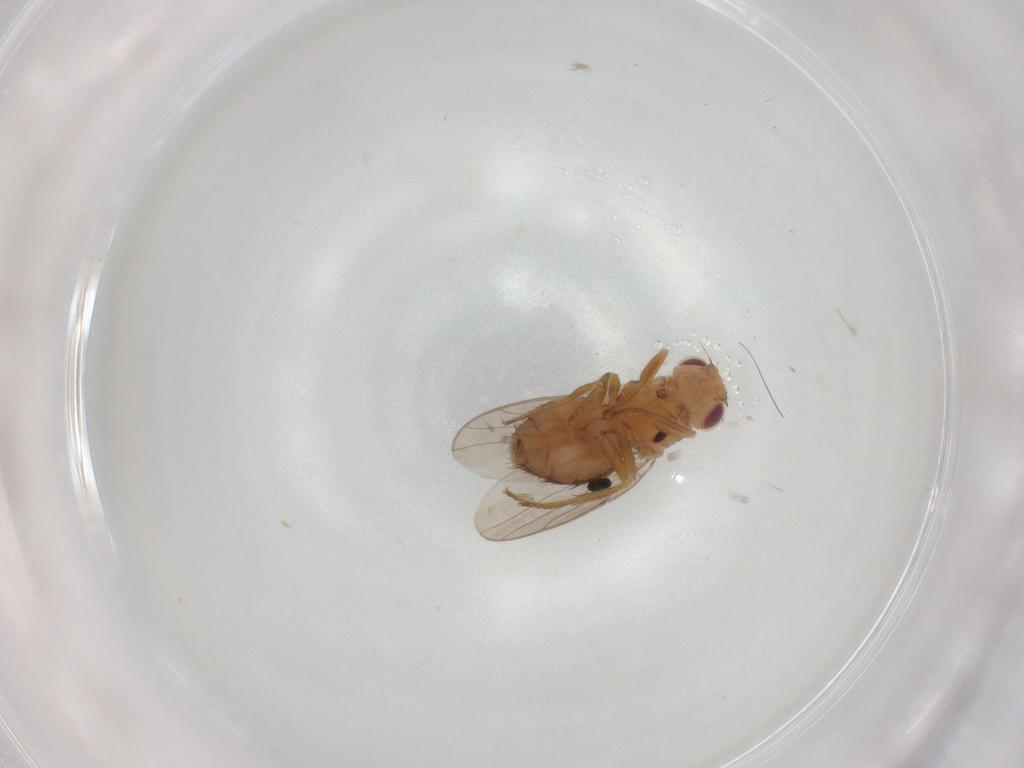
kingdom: Animalia
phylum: Arthropoda
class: Insecta
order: Diptera
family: Chloropidae
